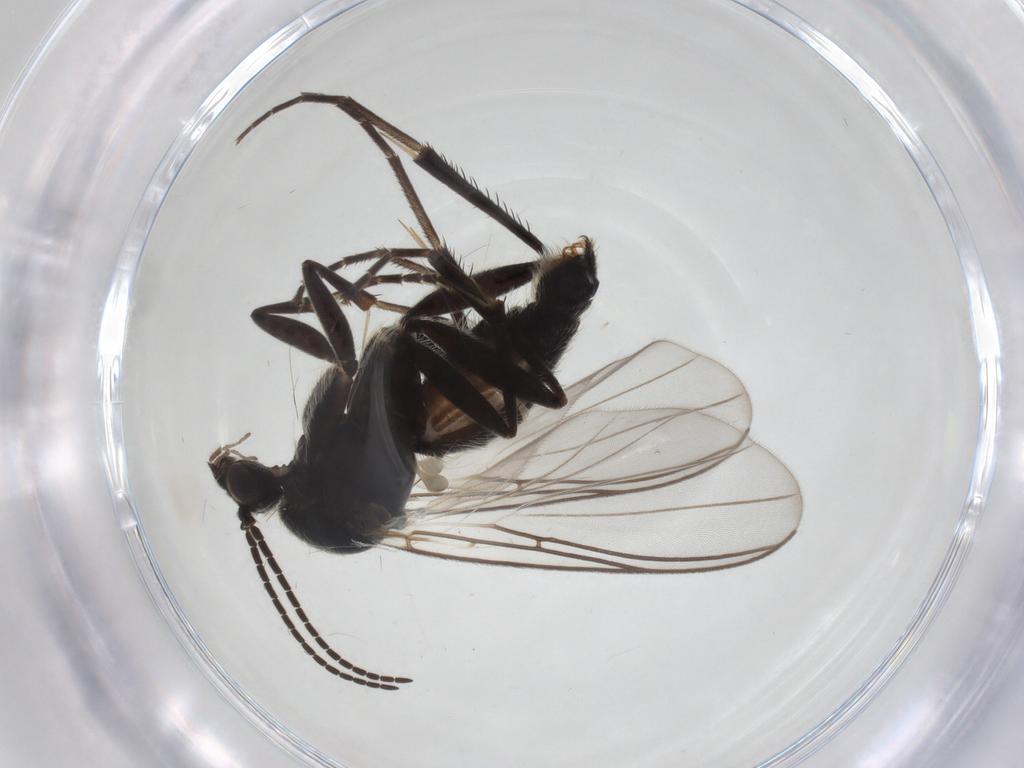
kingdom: Animalia
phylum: Arthropoda
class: Insecta
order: Diptera
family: Mycetophilidae
